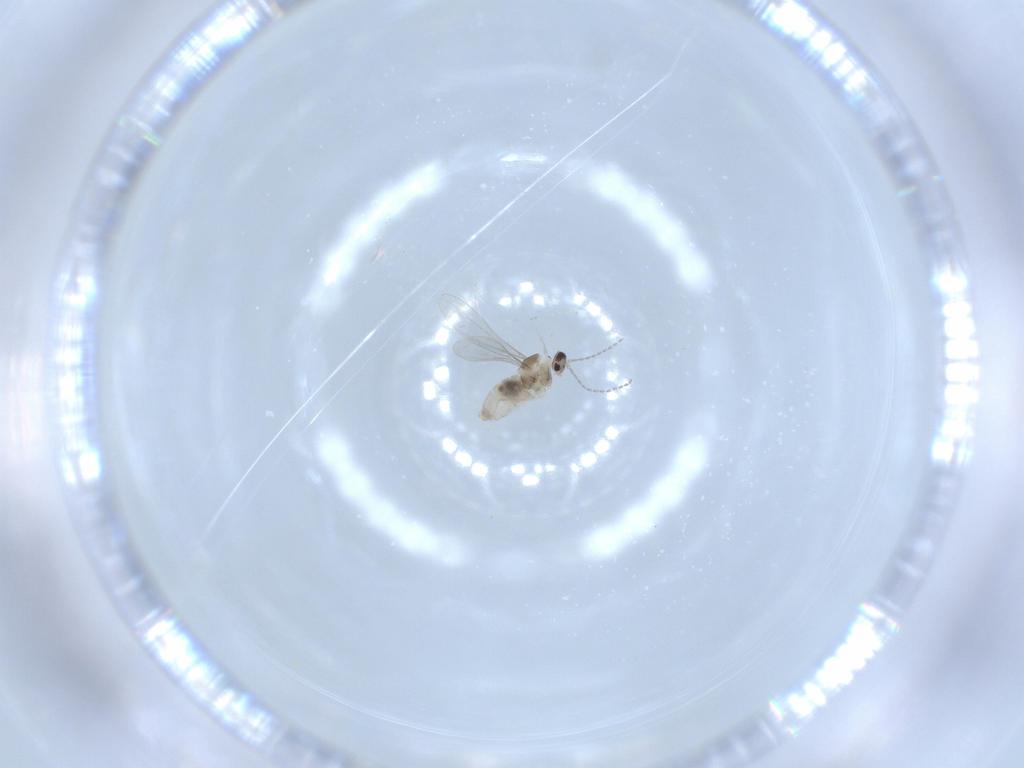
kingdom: Animalia
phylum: Arthropoda
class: Insecta
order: Diptera
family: Cecidomyiidae
